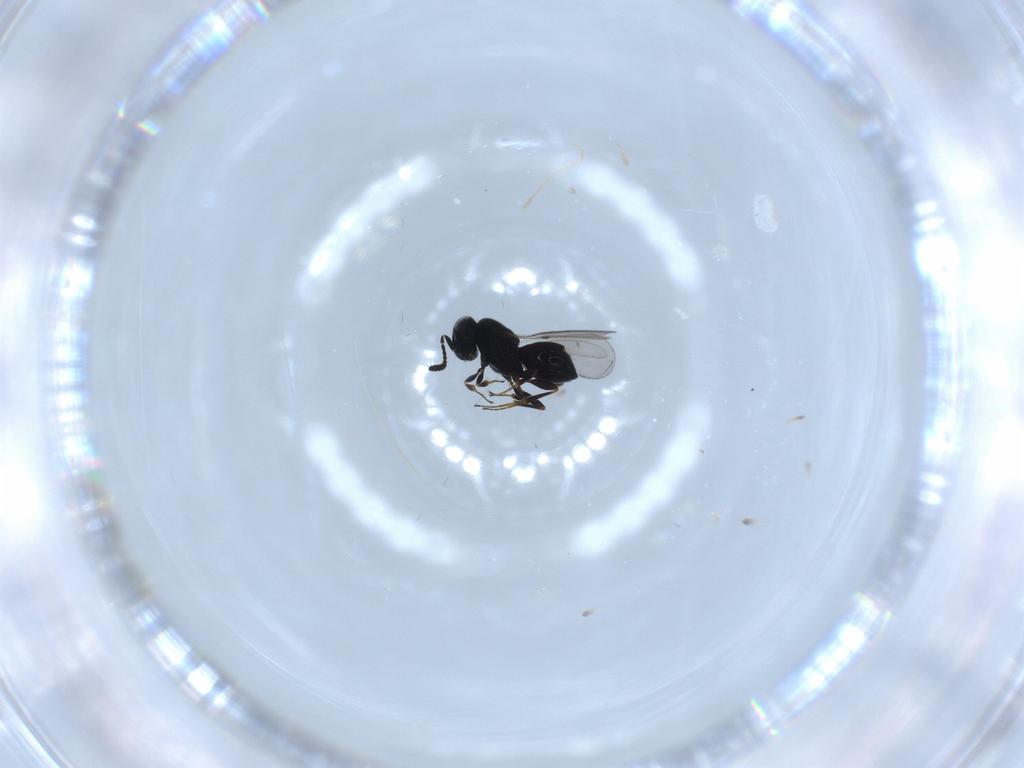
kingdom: Animalia
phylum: Arthropoda
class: Insecta
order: Hymenoptera
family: Scelionidae
